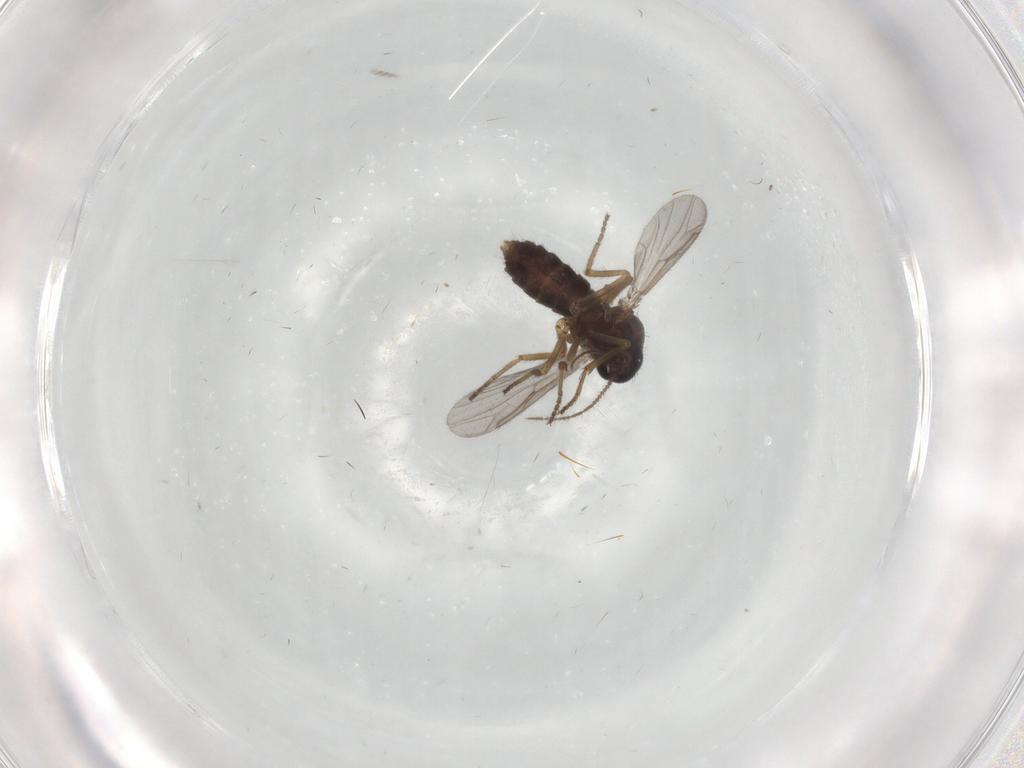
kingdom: Animalia
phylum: Arthropoda
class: Insecta
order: Diptera
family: Ceratopogonidae
